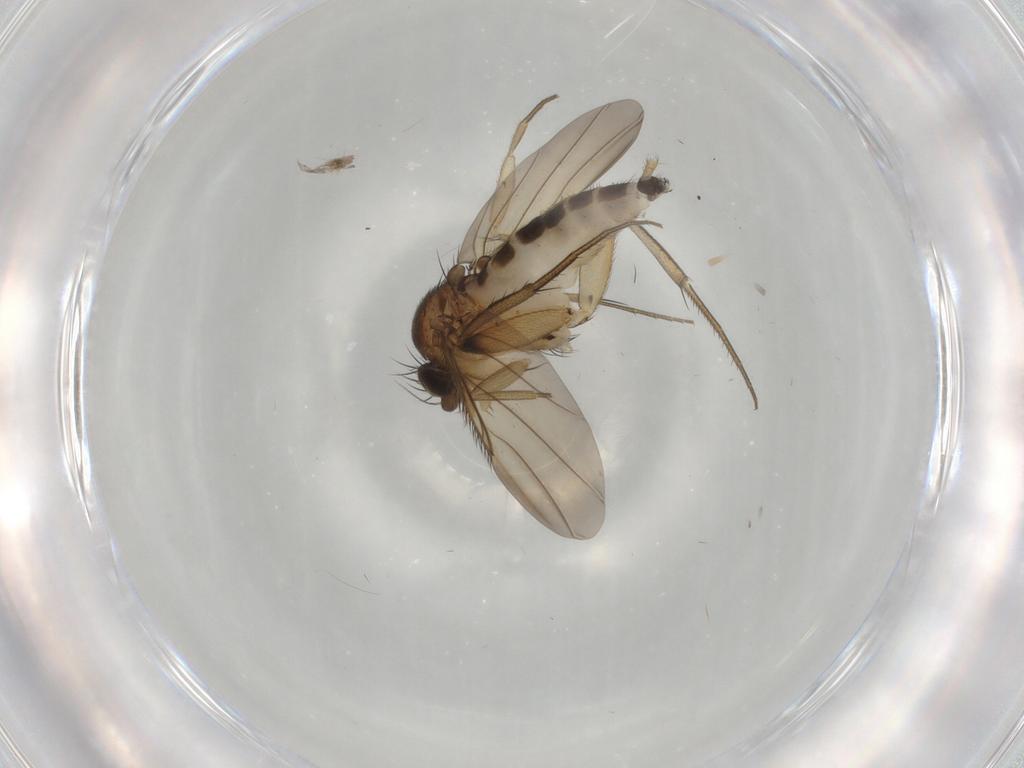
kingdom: Animalia
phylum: Arthropoda
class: Insecta
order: Diptera
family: Phoridae
